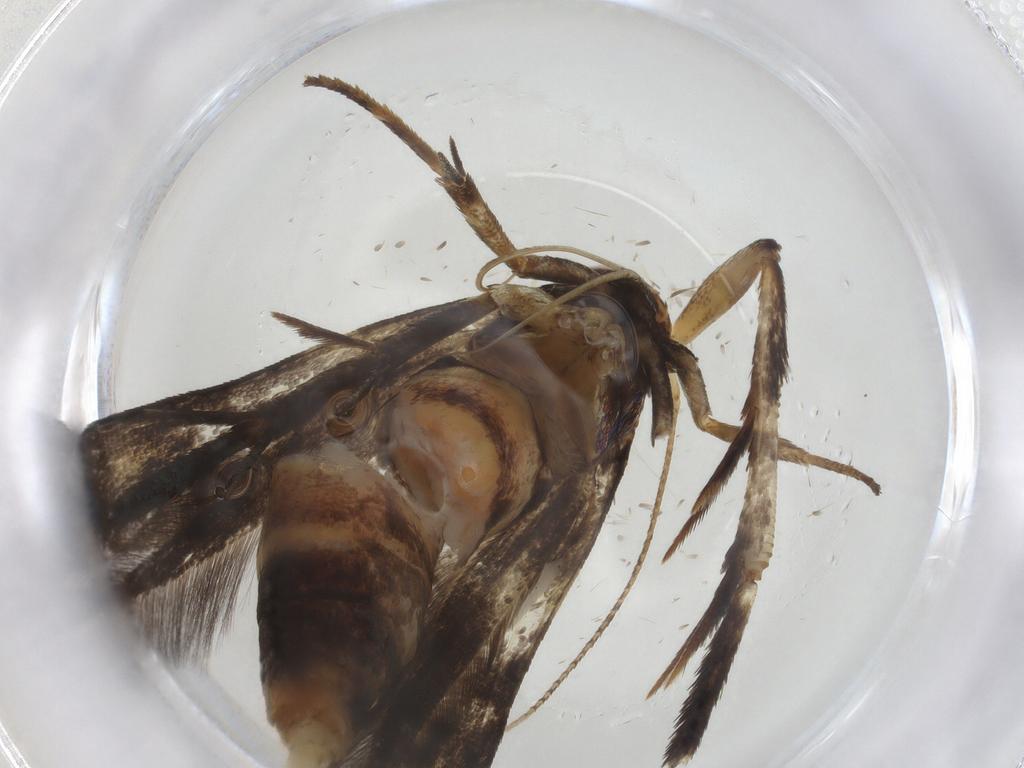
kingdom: Animalia
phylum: Arthropoda
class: Insecta
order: Lepidoptera
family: Gelechiidae
